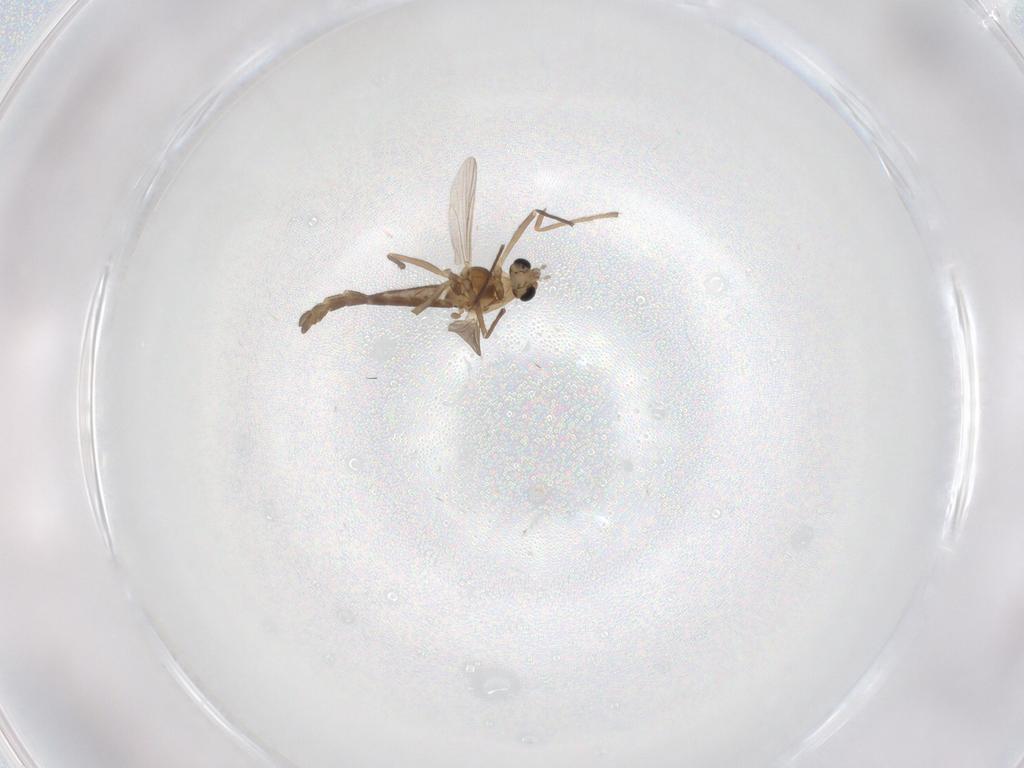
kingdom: Animalia
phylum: Arthropoda
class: Insecta
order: Diptera
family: Chironomidae
